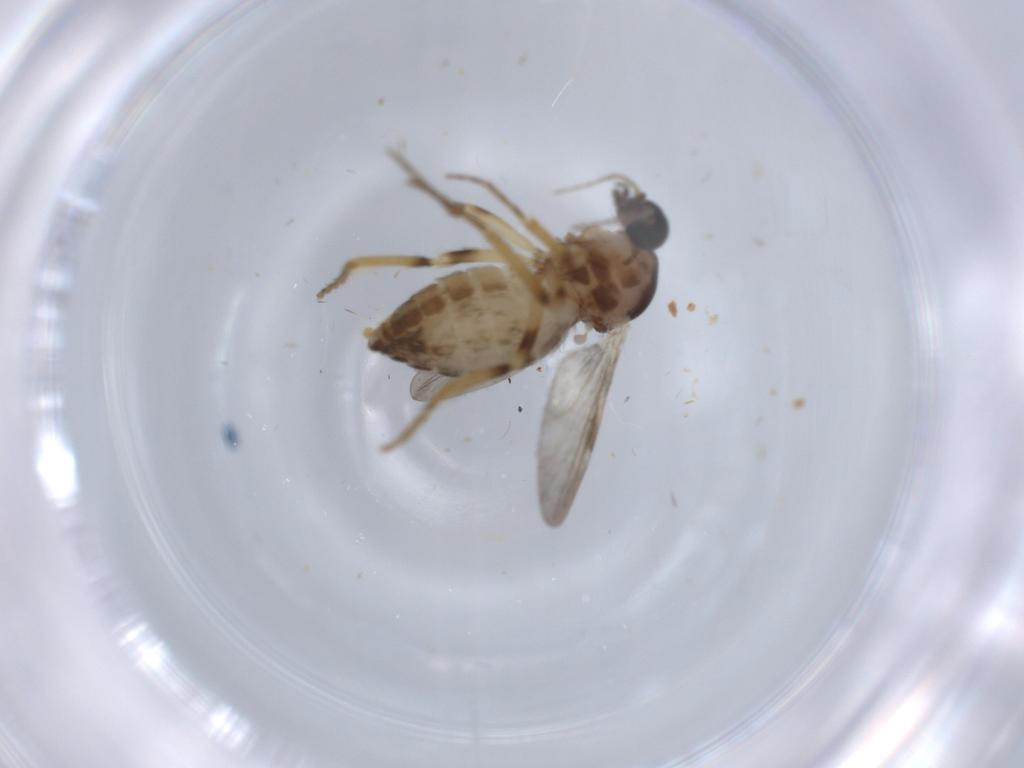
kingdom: Animalia
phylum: Arthropoda
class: Insecta
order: Diptera
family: Ceratopogonidae
